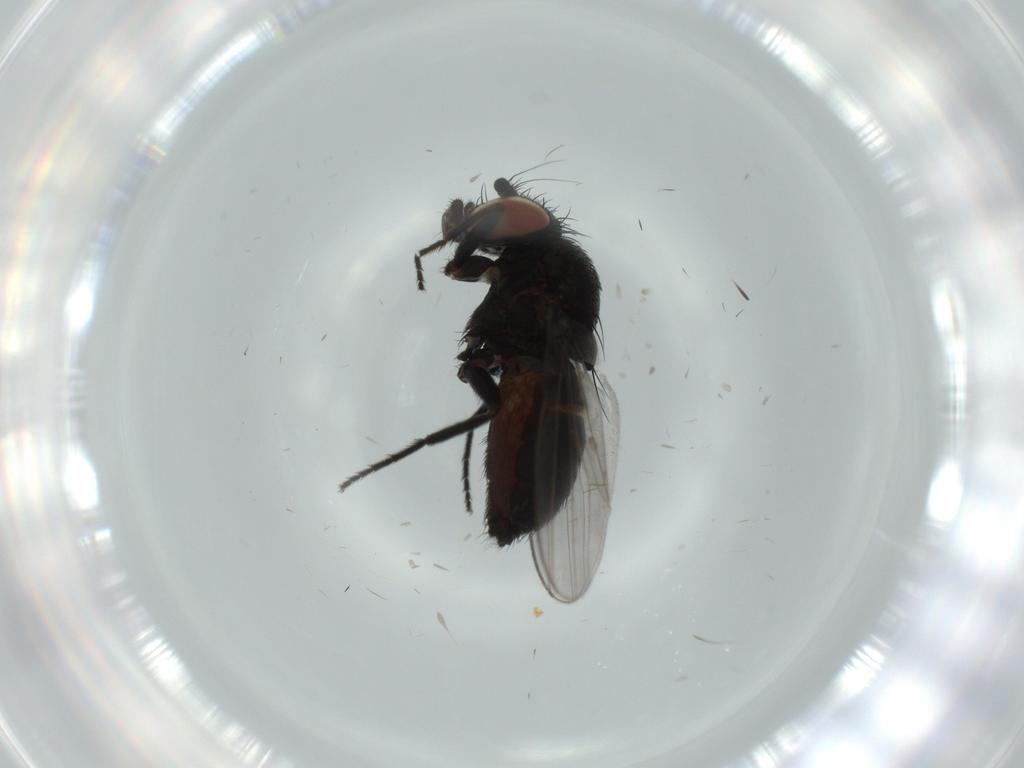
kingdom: Animalia
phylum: Arthropoda
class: Insecta
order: Diptera
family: Milichiidae
